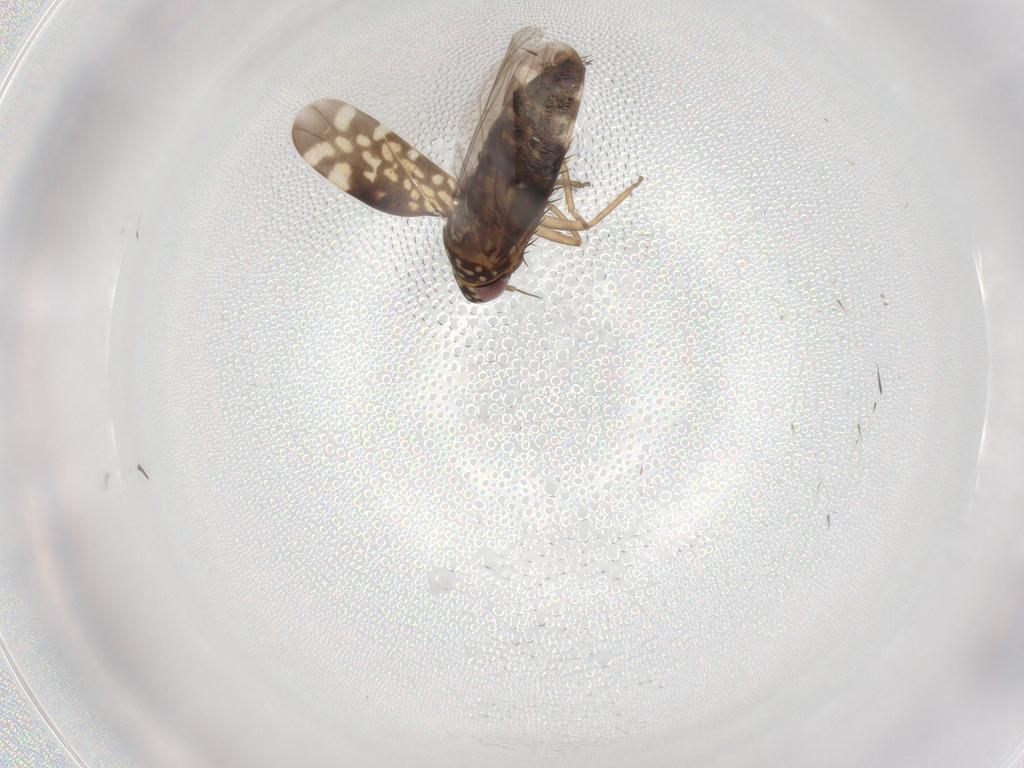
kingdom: Animalia
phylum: Arthropoda
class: Insecta
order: Hemiptera
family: Cicadellidae
